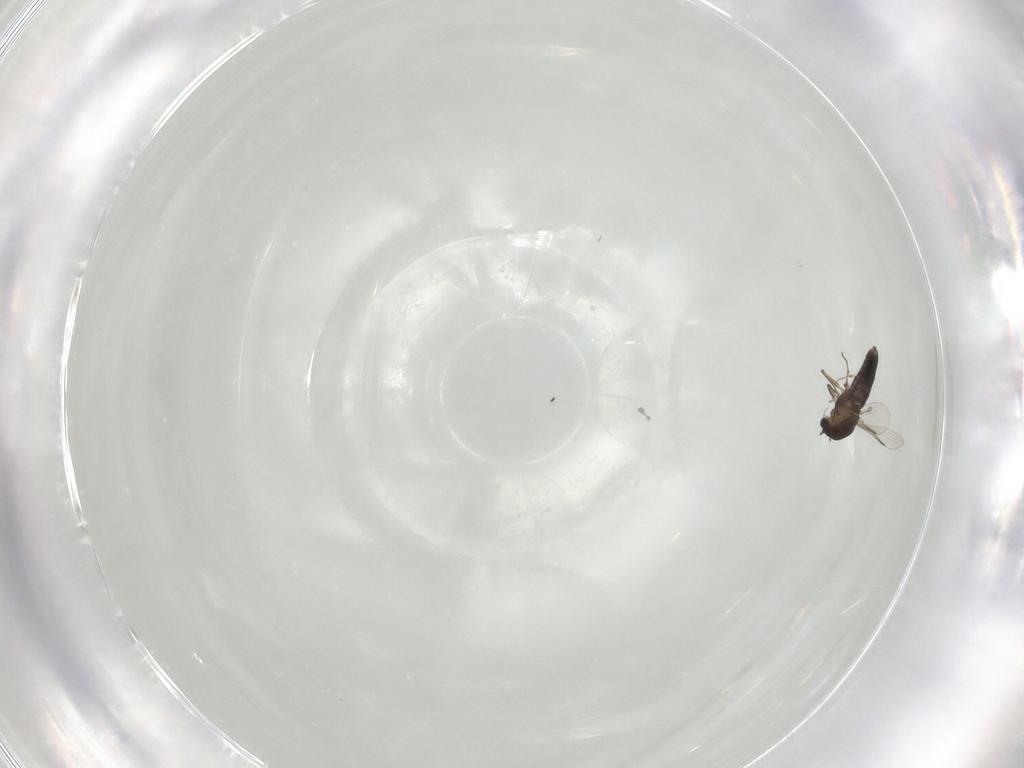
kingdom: Animalia
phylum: Arthropoda
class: Insecta
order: Diptera
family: Chironomidae
